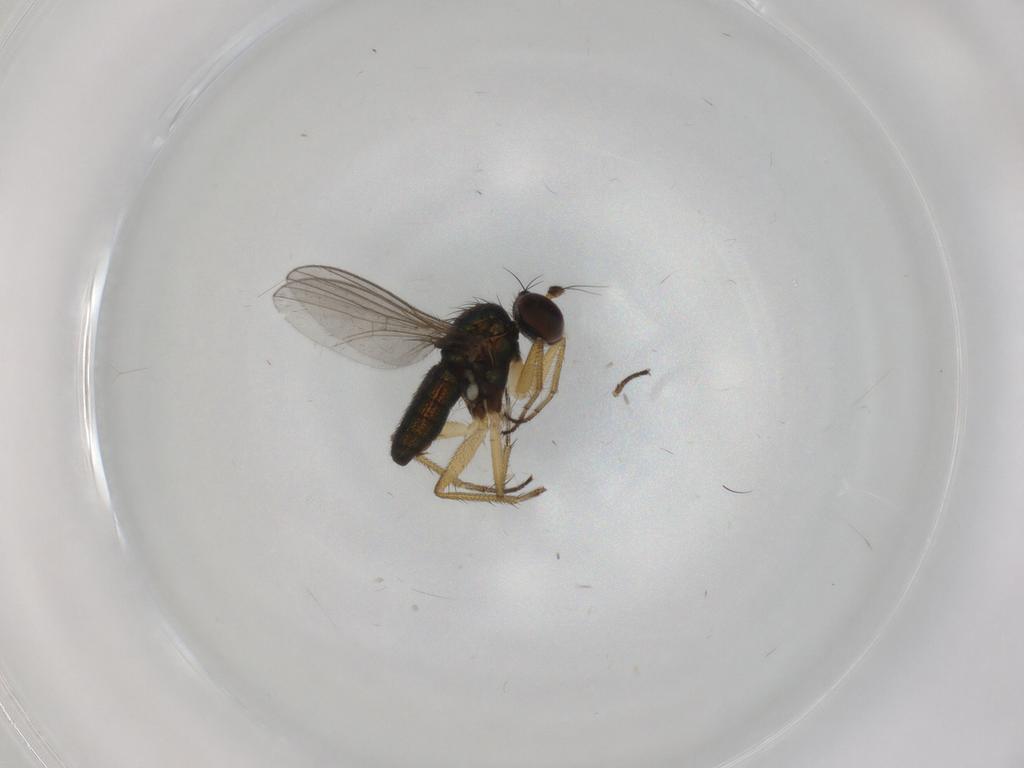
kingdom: Animalia
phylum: Arthropoda
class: Insecta
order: Diptera
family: Dolichopodidae
